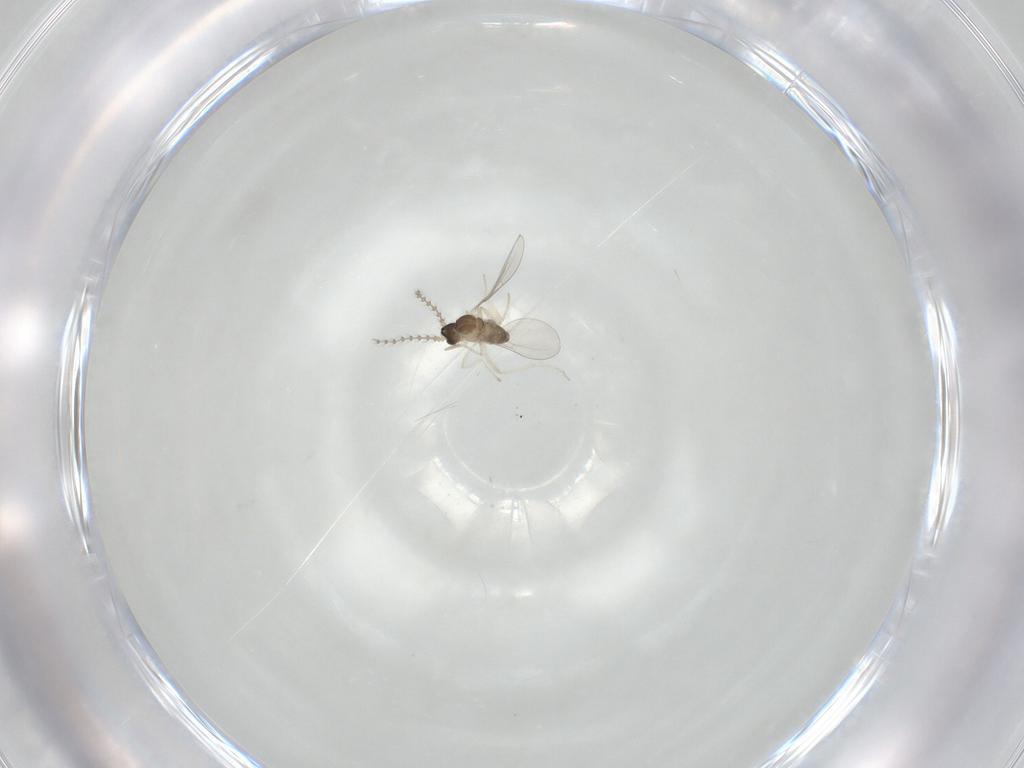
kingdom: Animalia
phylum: Arthropoda
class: Insecta
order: Diptera
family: Cecidomyiidae
